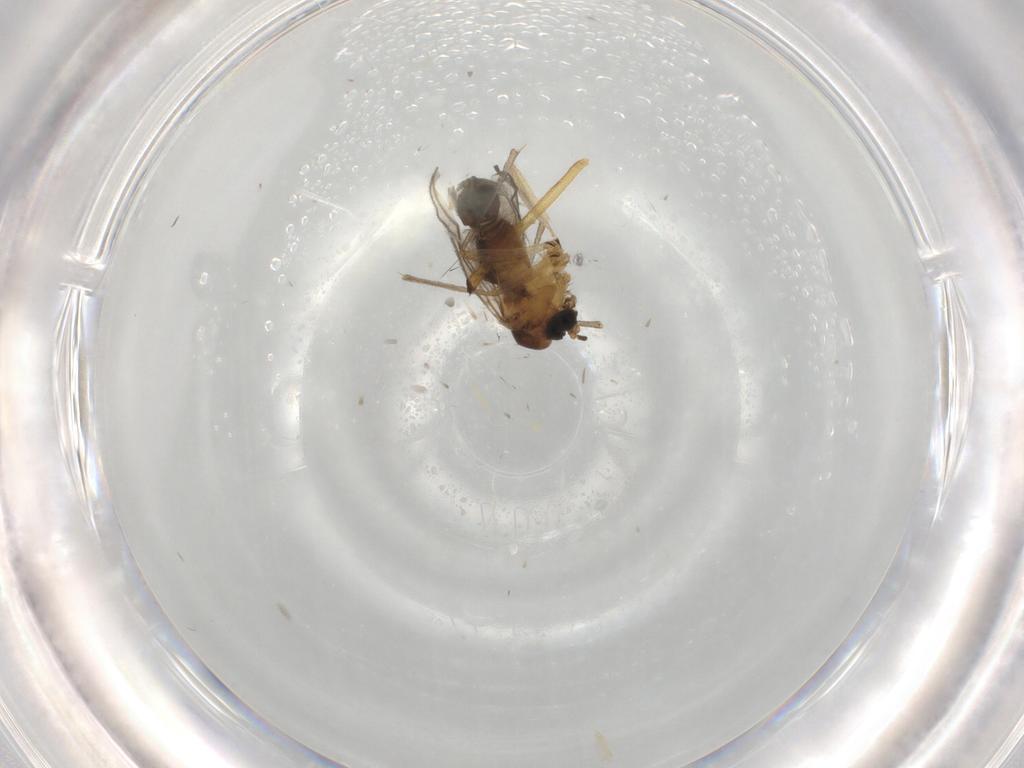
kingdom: Animalia
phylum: Arthropoda
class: Insecta
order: Diptera
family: Sciaridae
